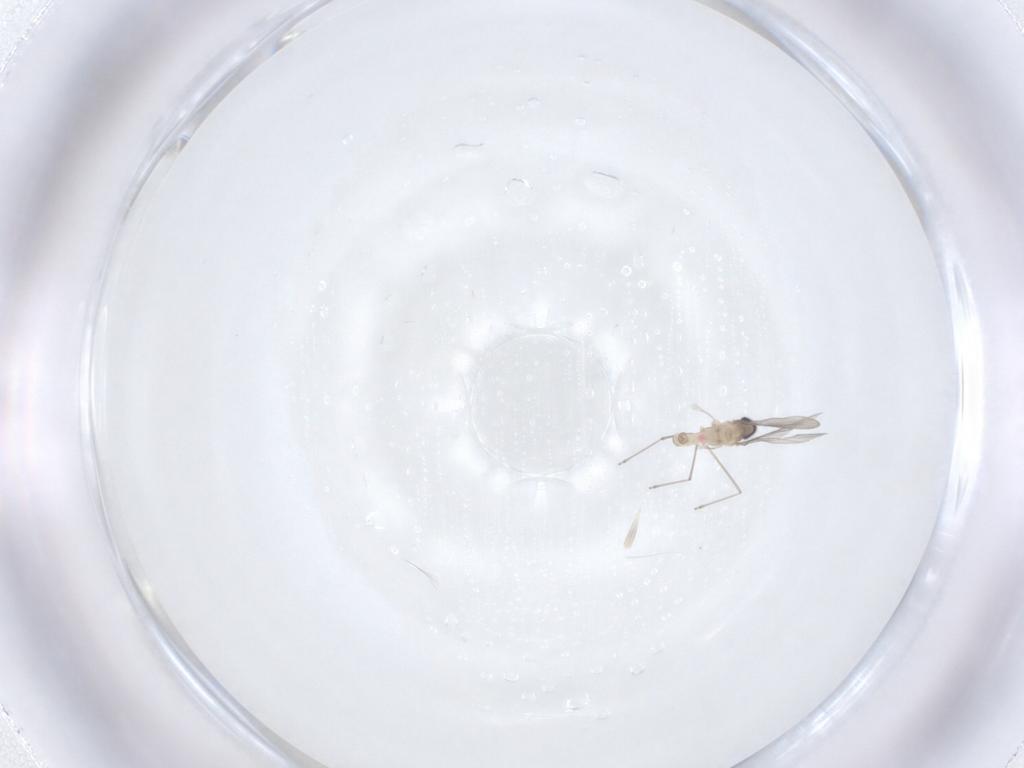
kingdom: Animalia
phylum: Arthropoda
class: Insecta
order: Diptera
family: Cecidomyiidae
